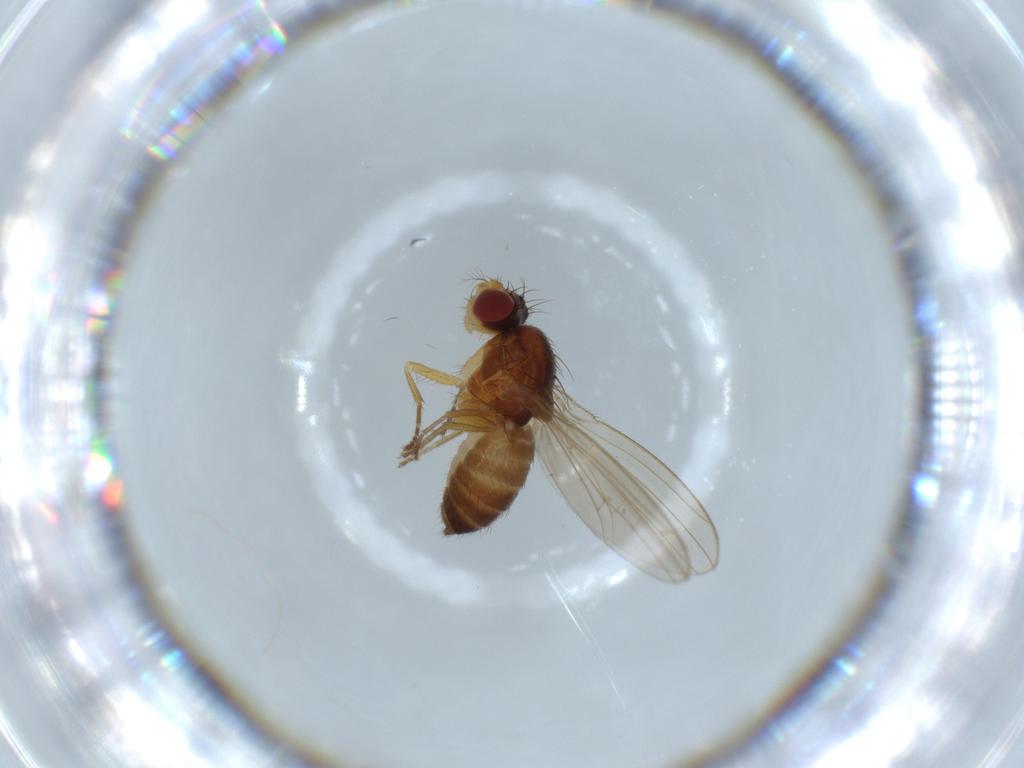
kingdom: Animalia
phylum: Arthropoda
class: Insecta
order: Diptera
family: Drosophilidae
